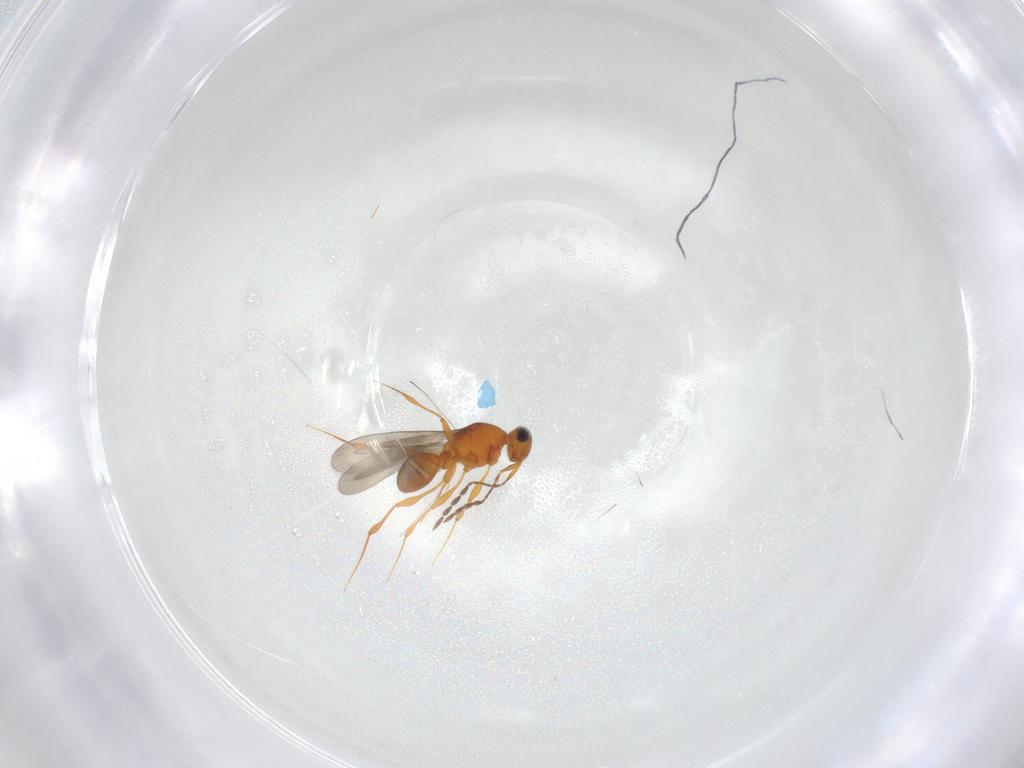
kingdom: Animalia
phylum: Arthropoda
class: Insecta
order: Hymenoptera
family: Platygastridae
